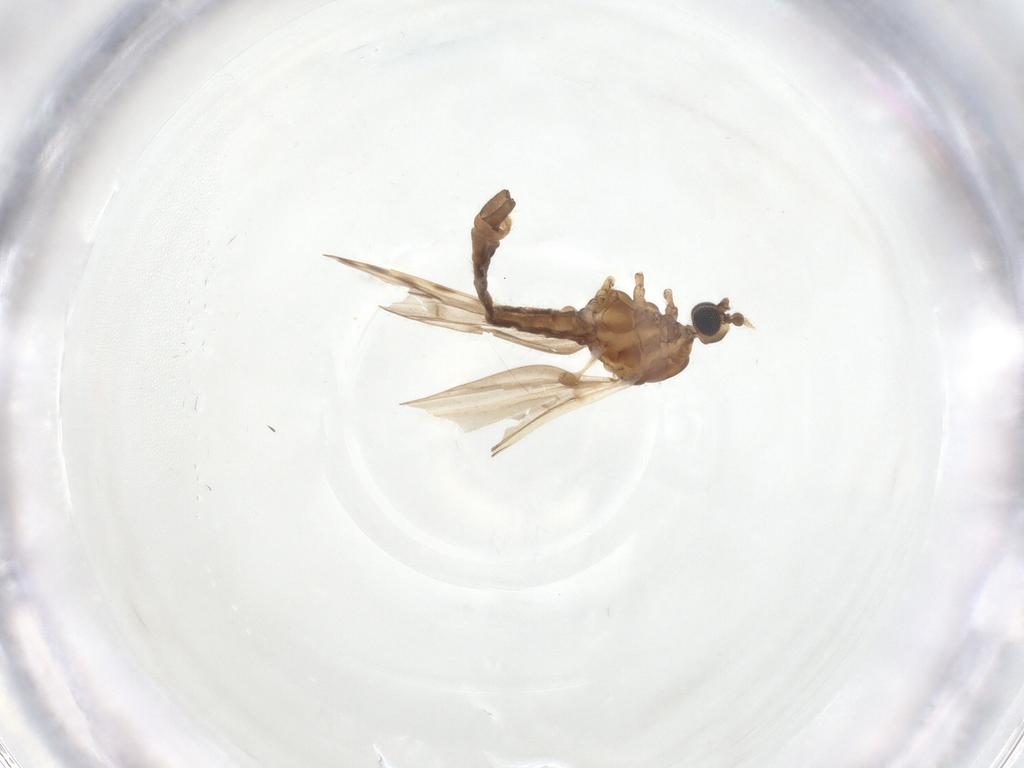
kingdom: Animalia
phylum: Arthropoda
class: Insecta
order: Diptera
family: Limoniidae
